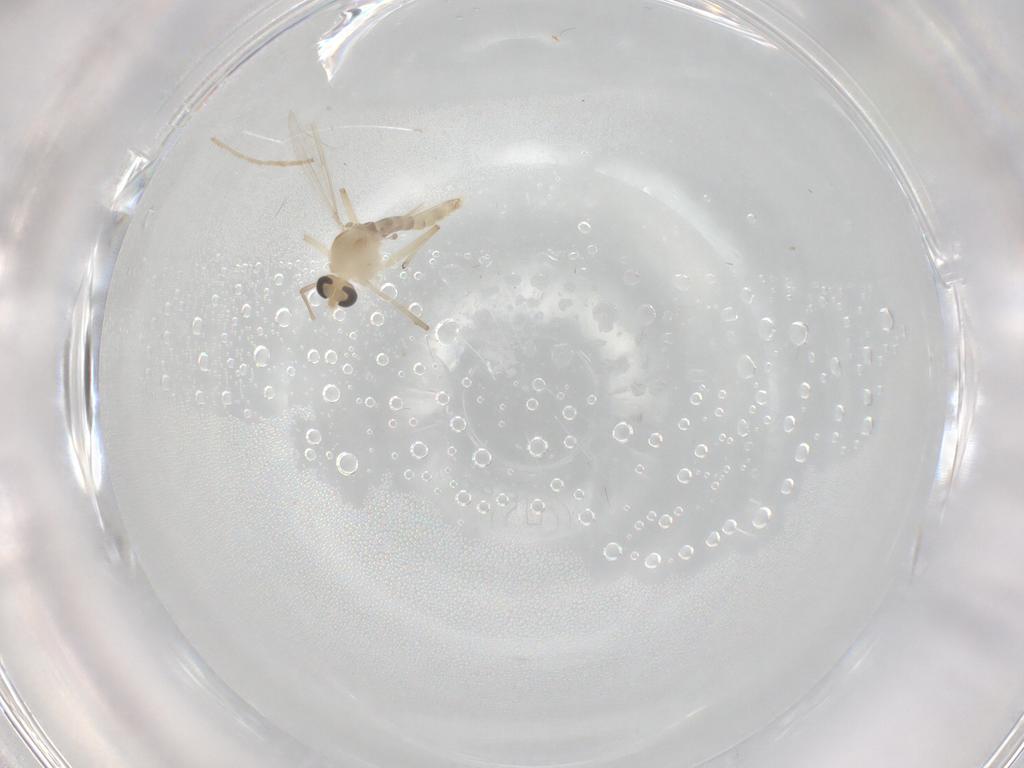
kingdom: Animalia
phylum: Arthropoda
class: Insecta
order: Diptera
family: Chironomidae
